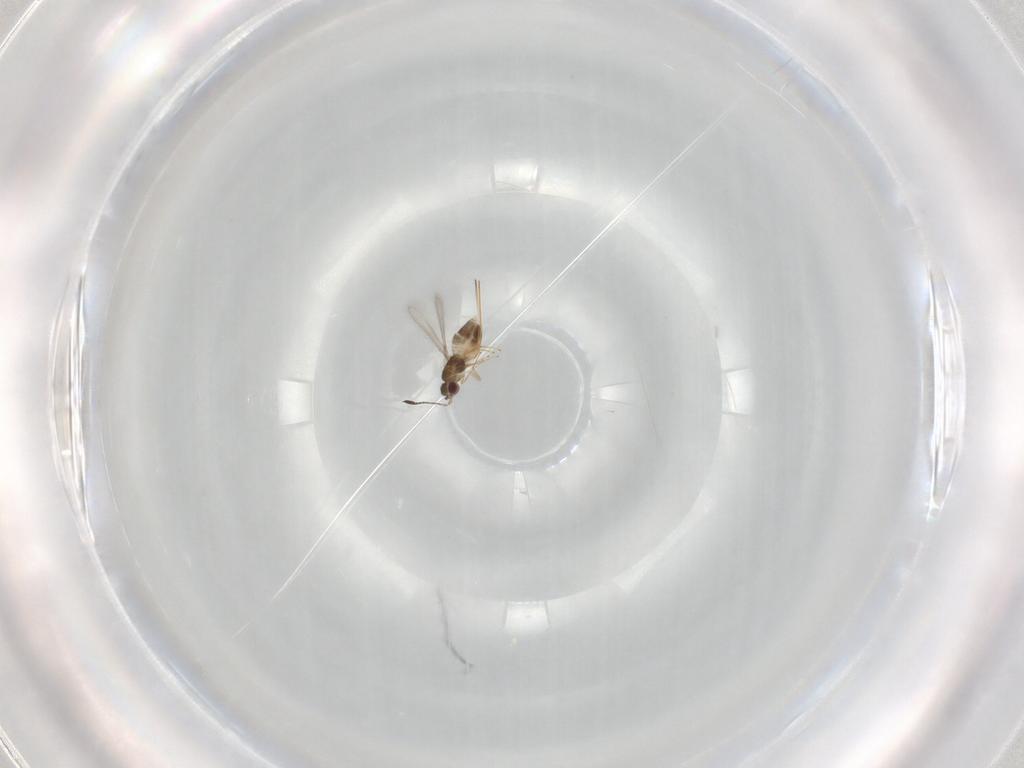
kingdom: Animalia
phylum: Arthropoda
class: Insecta
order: Hymenoptera
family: Mymaridae
